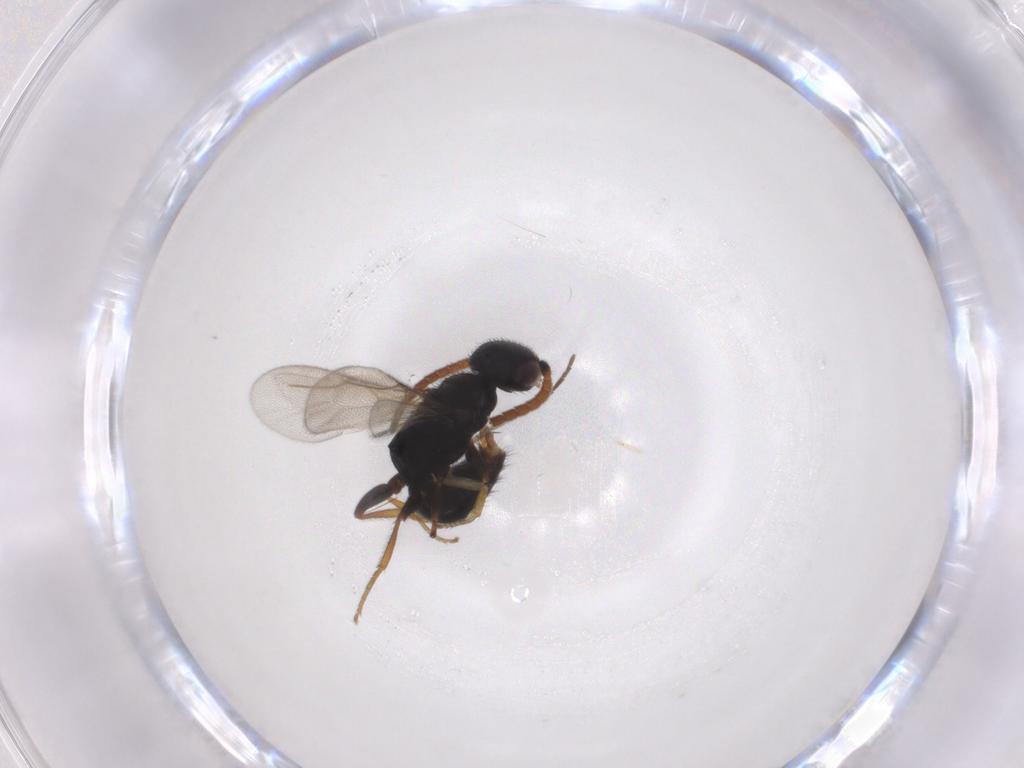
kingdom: Animalia
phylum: Arthropoda
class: Insecta
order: Hymenoptera
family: Bethylidae
